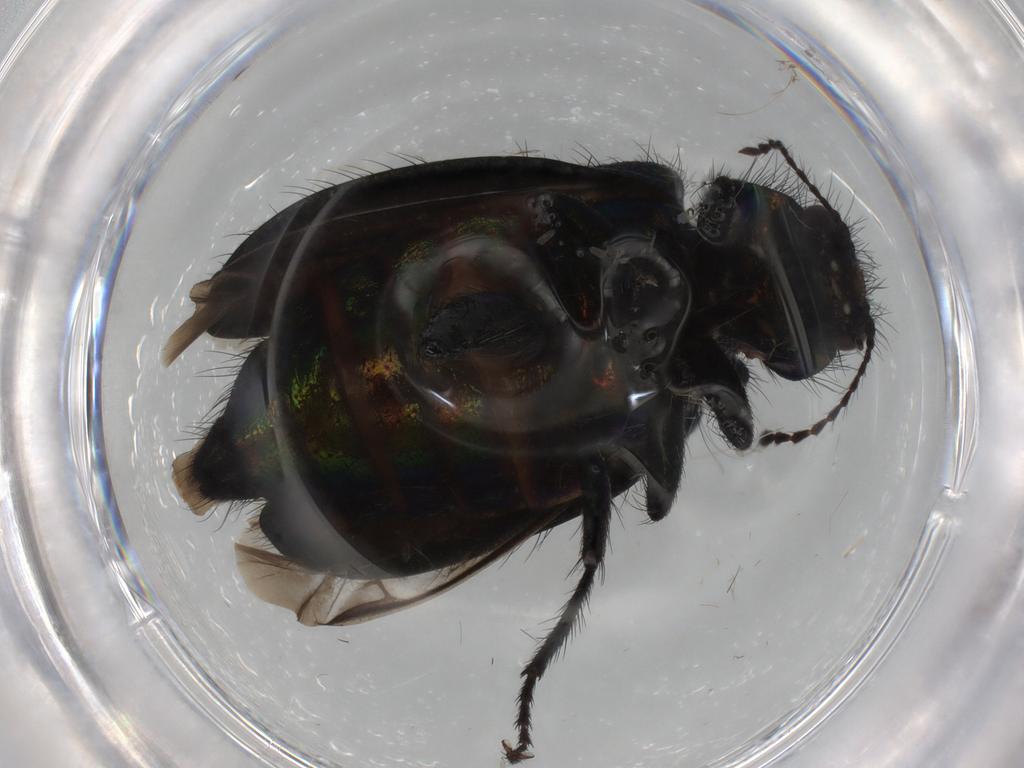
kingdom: Animalia
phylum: Arthropoda
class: Insecta
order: Coleoptera
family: Melyridae
